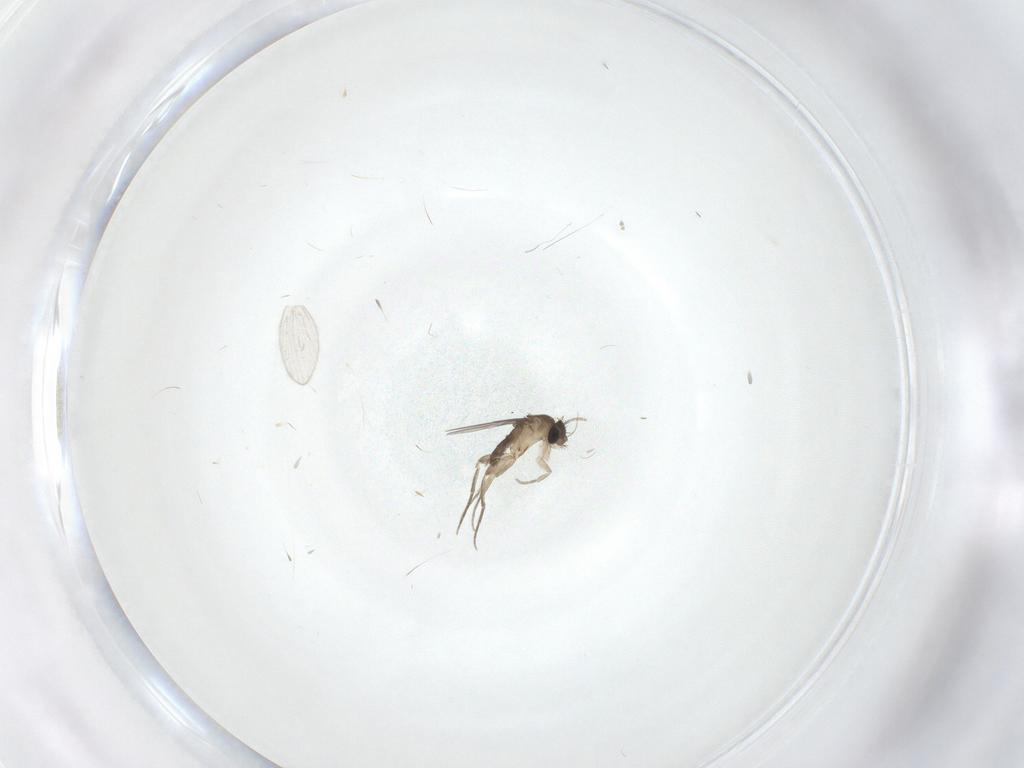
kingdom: Animalia
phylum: Arthropoda
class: Insecta
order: Diptera
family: Cecidomyiidae
